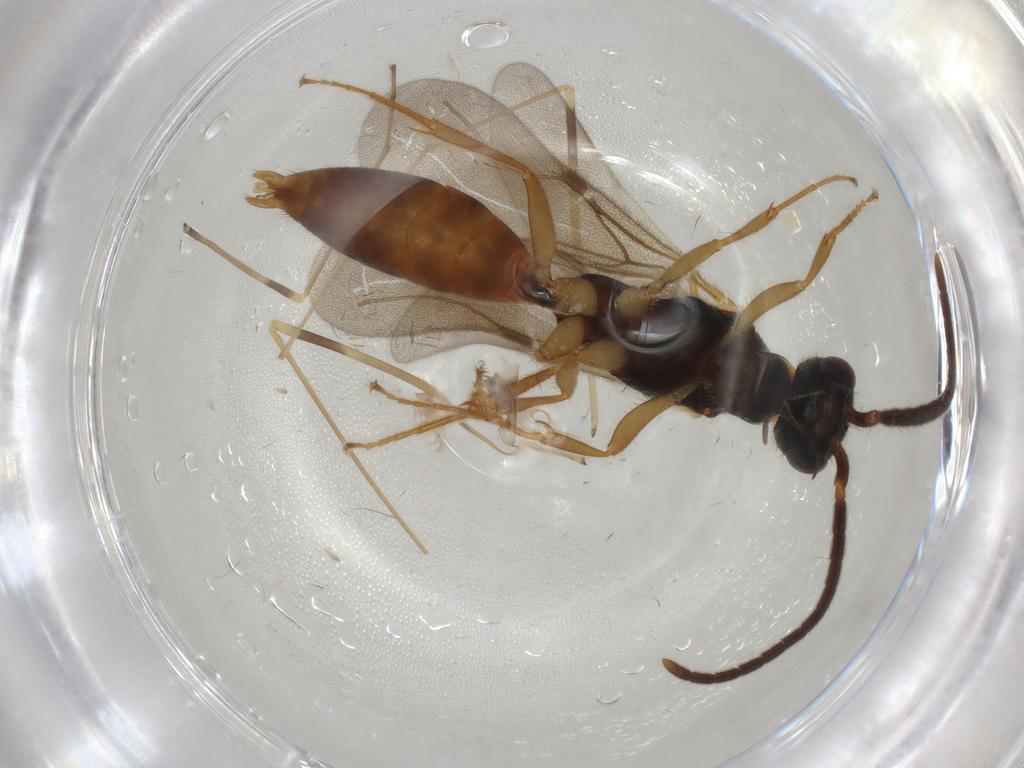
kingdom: Animalia
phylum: Arthropoda
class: Insecta
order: Hymenoptera
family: Bethylidae
